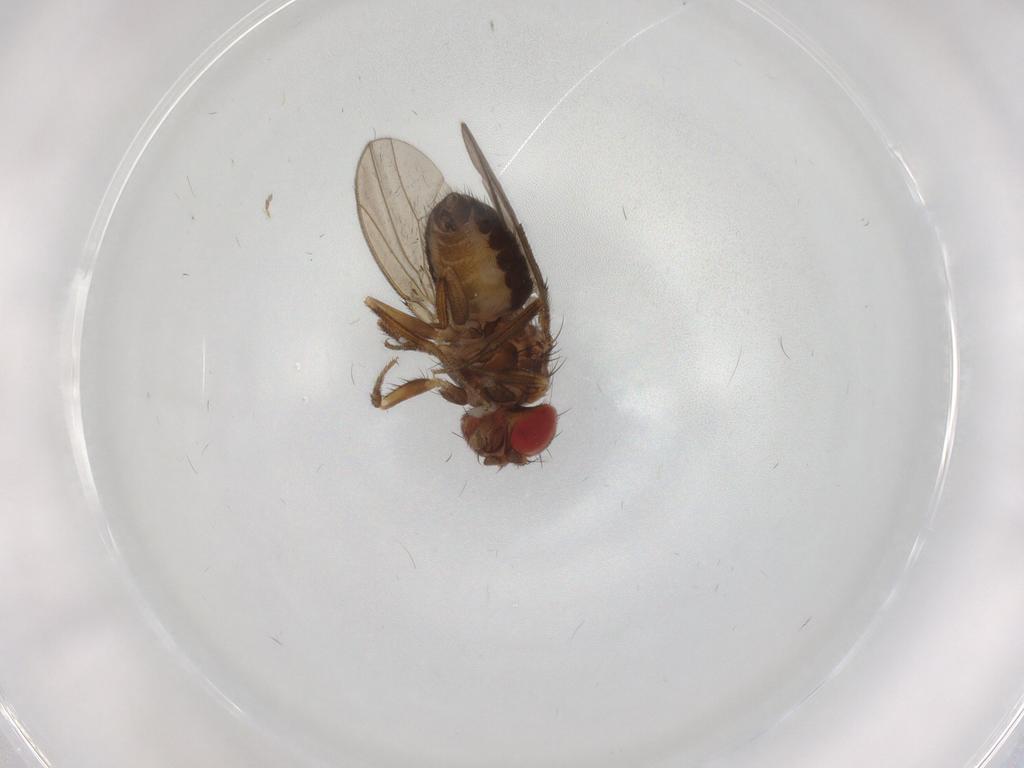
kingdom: Animalia
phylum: Arthropoda
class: Insecta
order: Diptera
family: Drosophilidae
